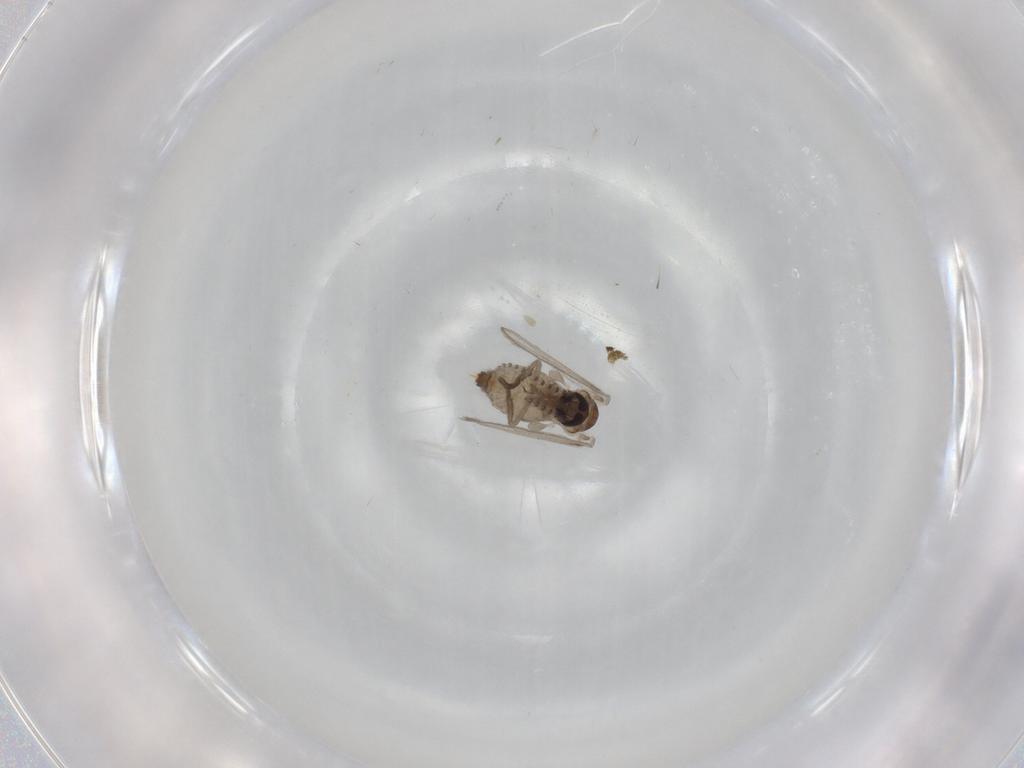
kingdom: Animalia
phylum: Arthropoda
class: Insecta
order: Diptera
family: Psychodidae
